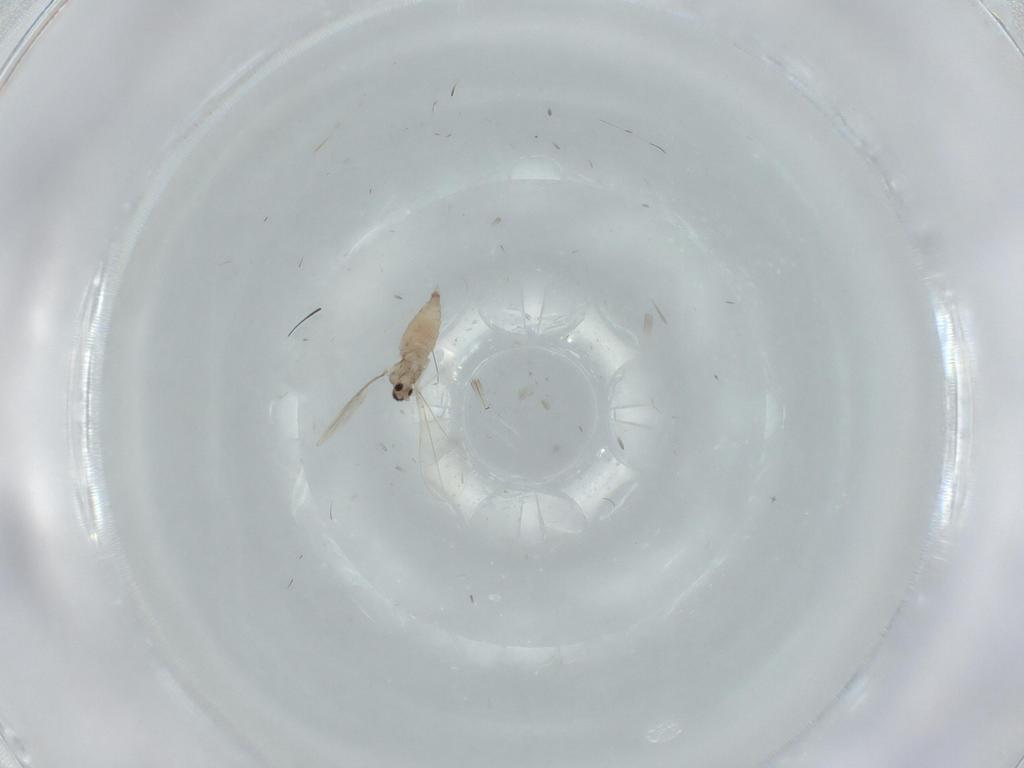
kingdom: Animalia
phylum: Arthropoda
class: Insecta
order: Diptera
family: Cecidomyiidae
